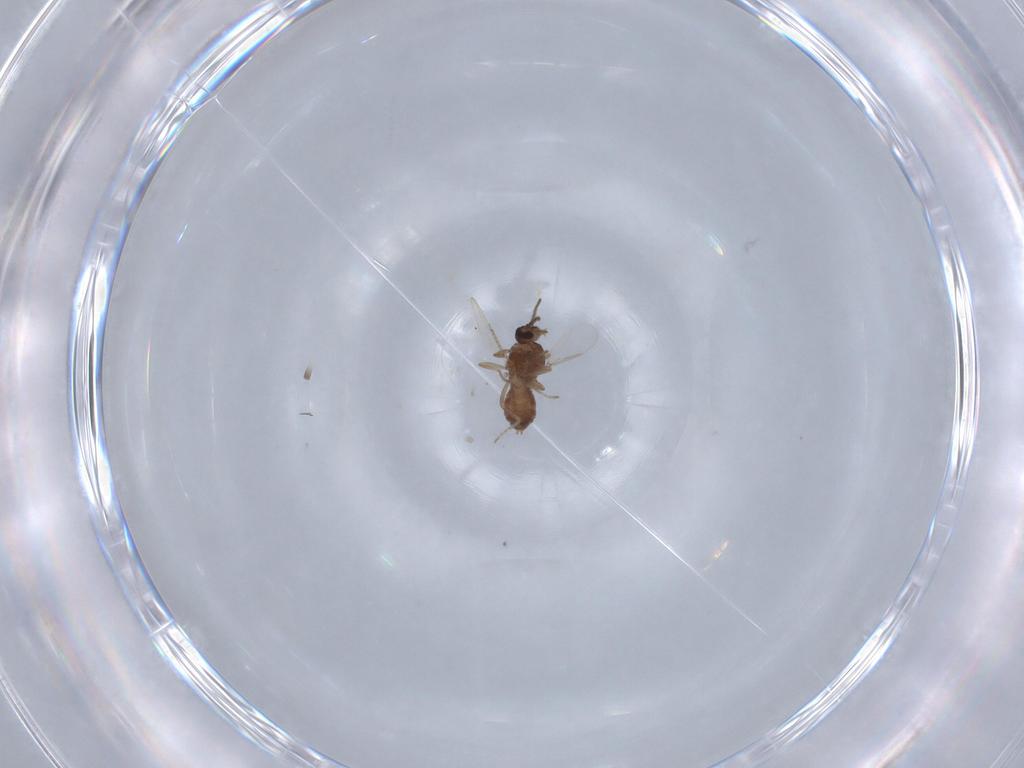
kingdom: Animalia
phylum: Arthropoda
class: Insecta
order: Diptera
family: Ceratopogonidae
